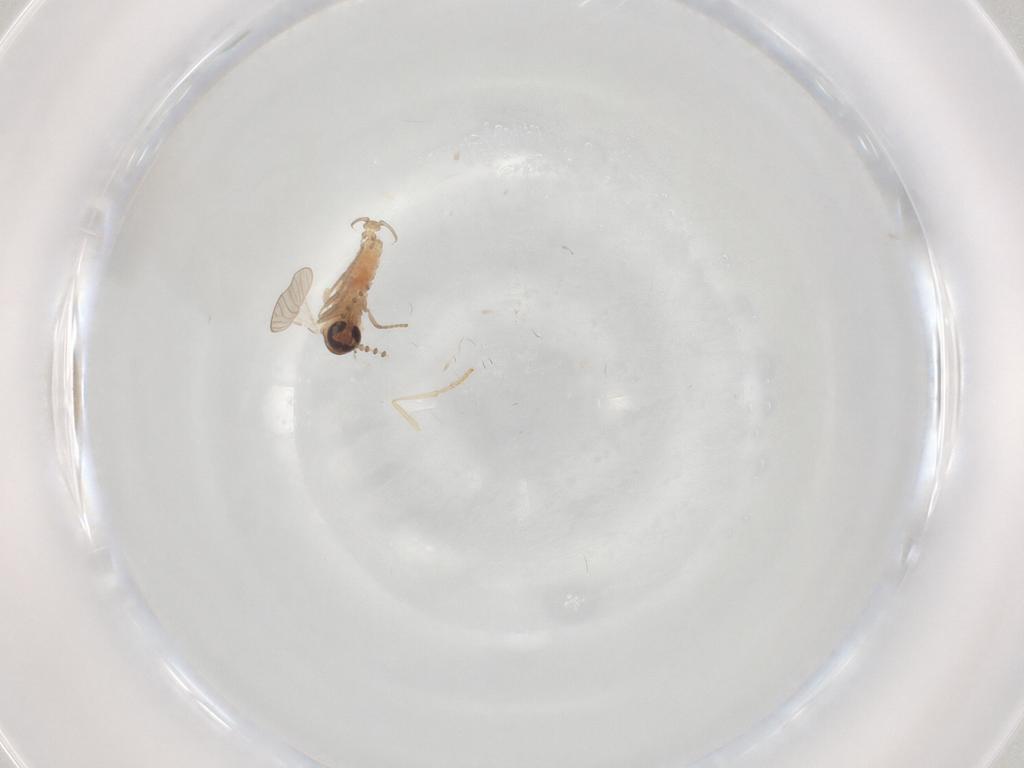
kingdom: Animalia
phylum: Arthropoda
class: Insecta
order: Diptera
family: Psychodidae
